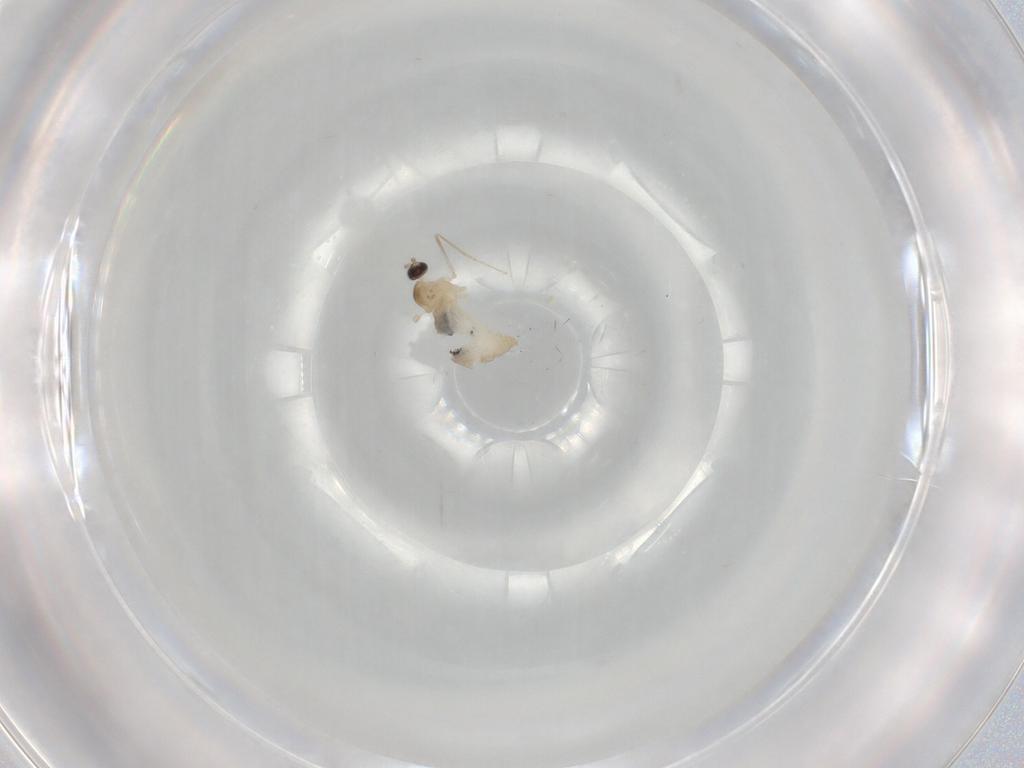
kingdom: Animalia
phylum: Arthropoda
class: Insecta
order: Diptera
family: Cecidomyiidae
